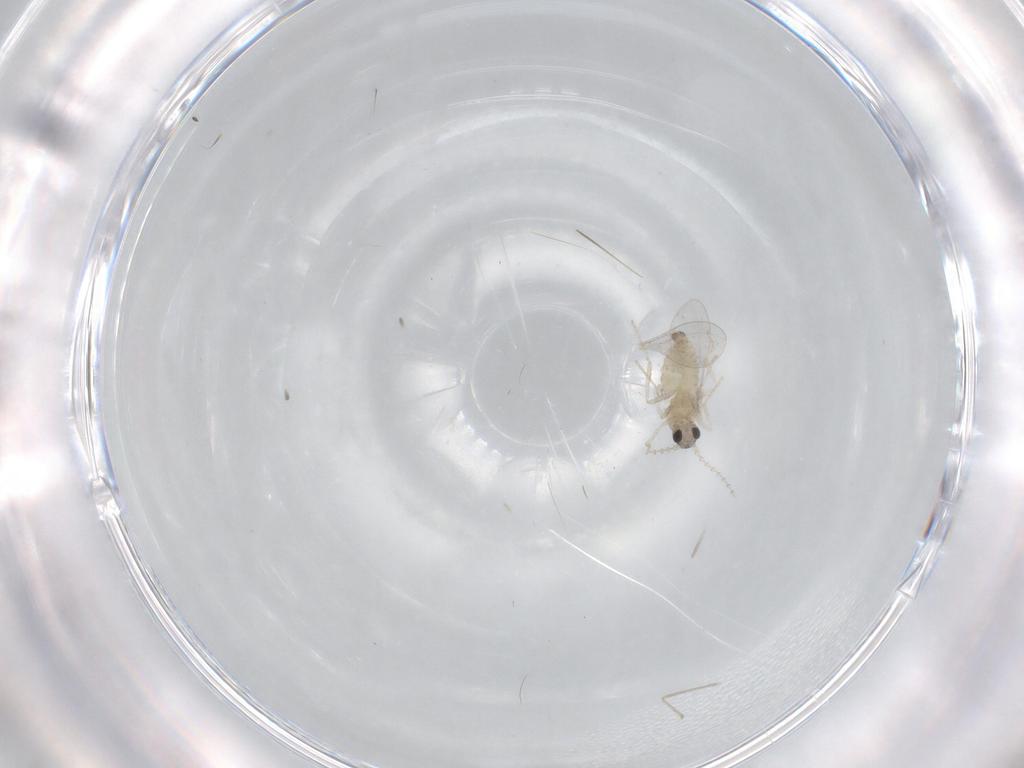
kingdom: Animalia
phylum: Arthropoda
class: Insecta
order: Diptera
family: Cecidomyiidae
